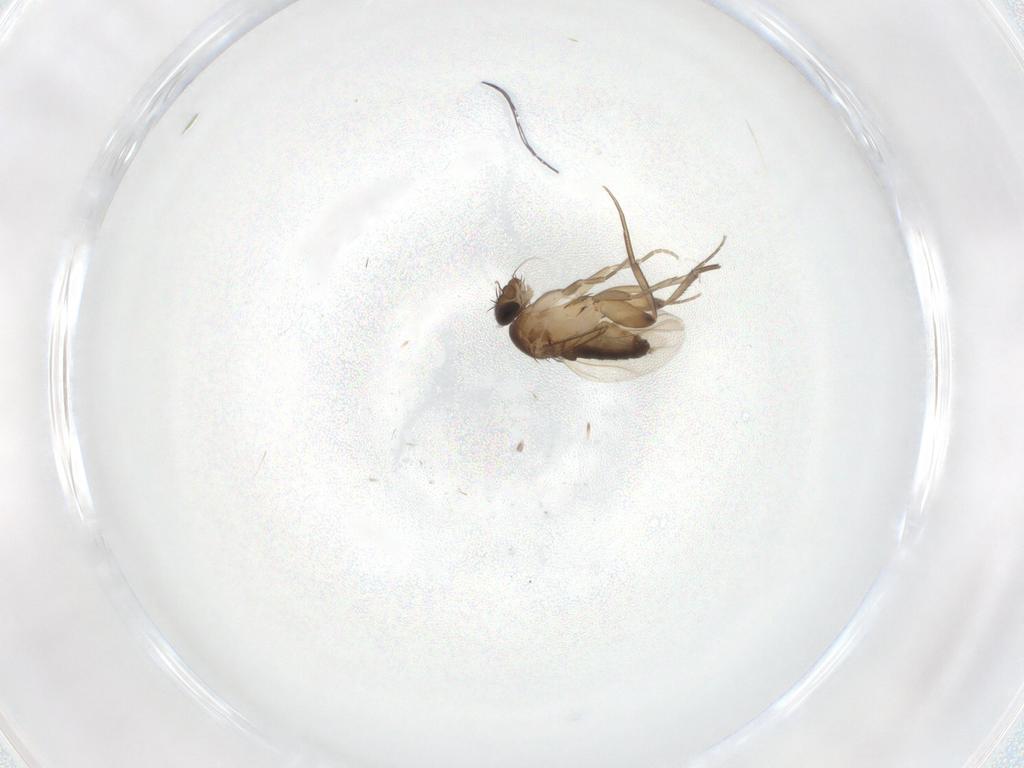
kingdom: Animalia
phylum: Arthropoda
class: Insecta
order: Diptera
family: Phoridae
